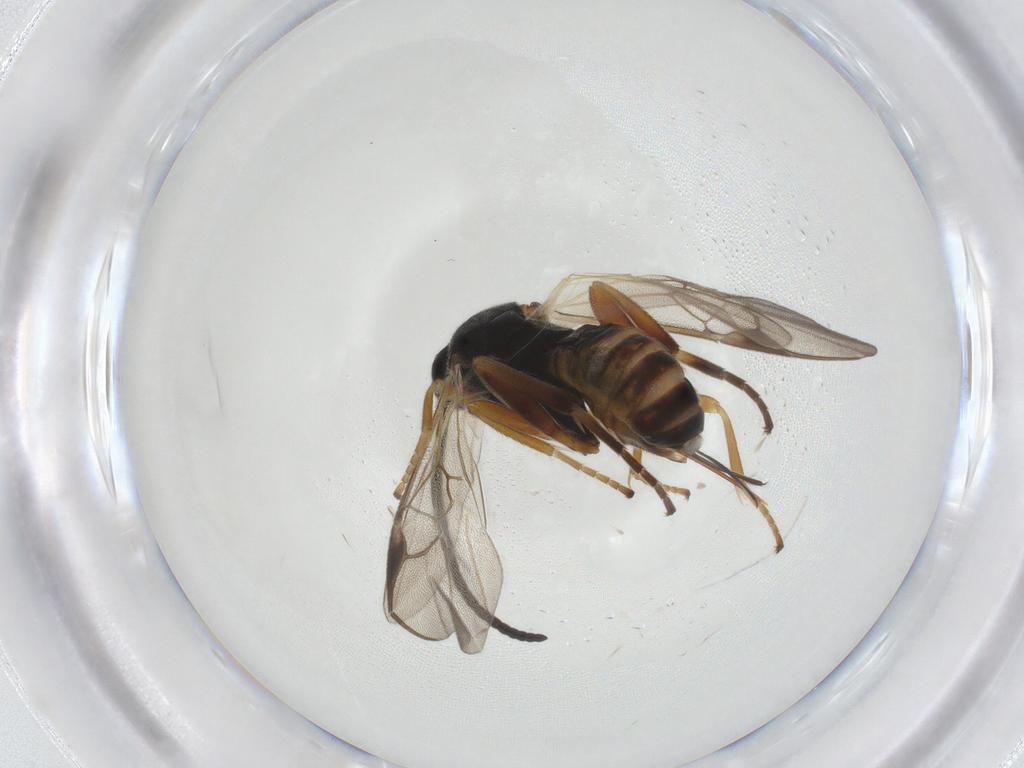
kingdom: Animalia
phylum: Arthropoda
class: Insecta
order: Hymenoptera
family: Braconidae
